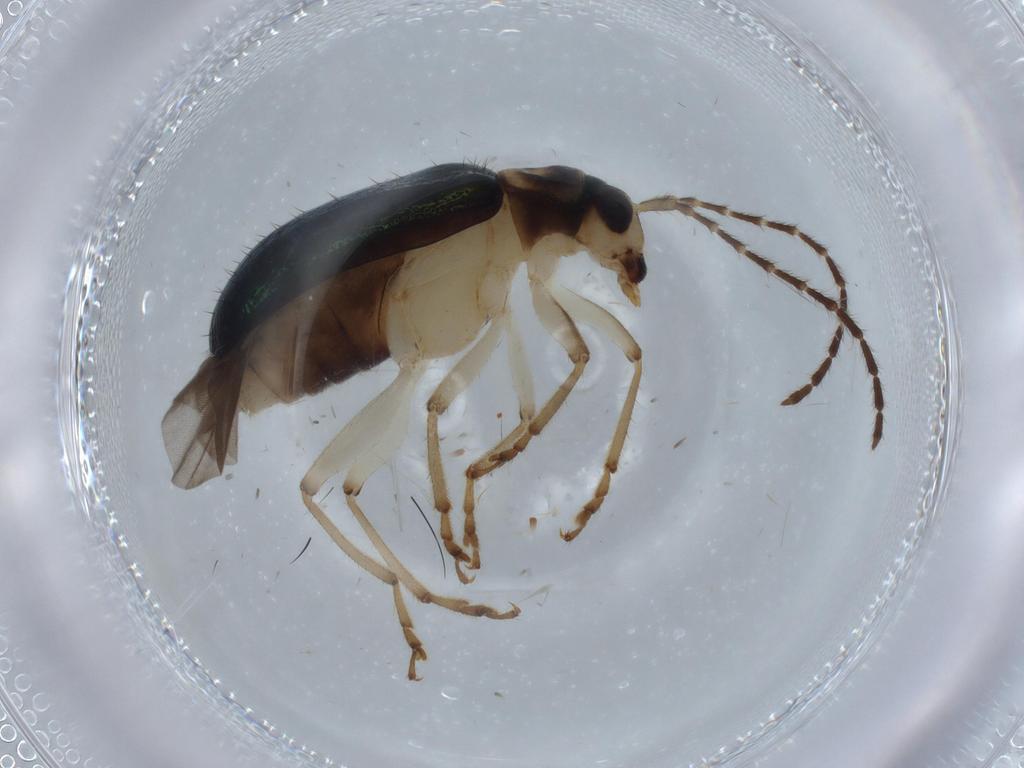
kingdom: Animalia
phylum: Arthropoda
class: Insecta
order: Coleoptera
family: Chrysomelidae
